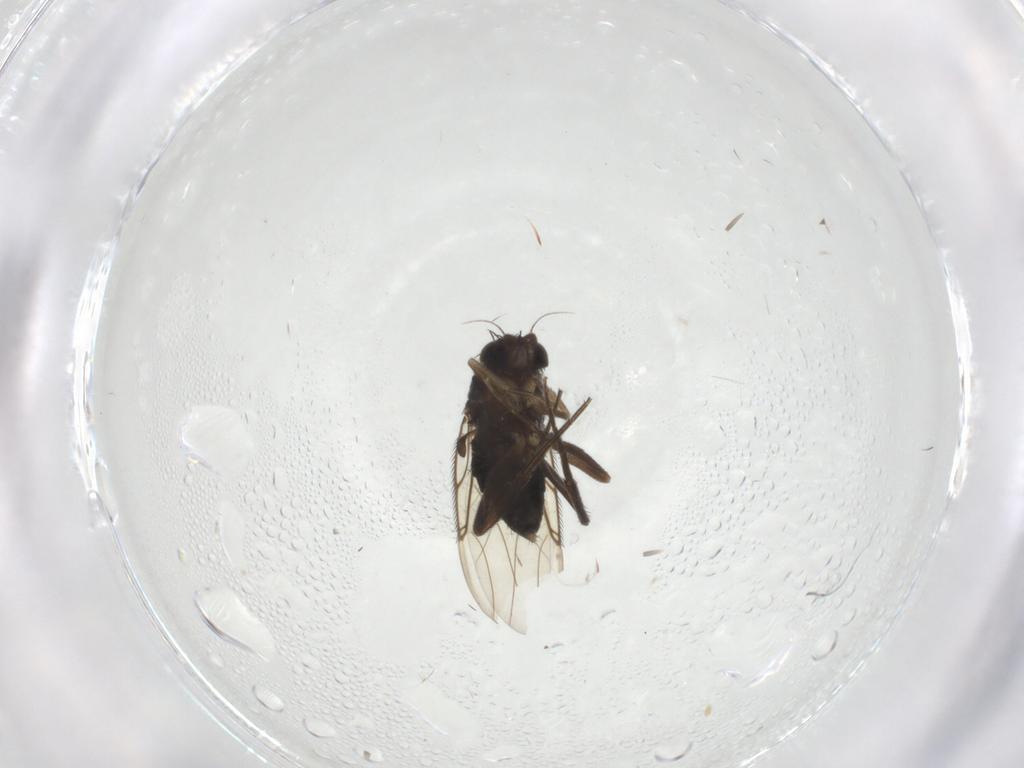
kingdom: Animalia
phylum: Arthropoda
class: Insecta
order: Diptera
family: Phoridae
